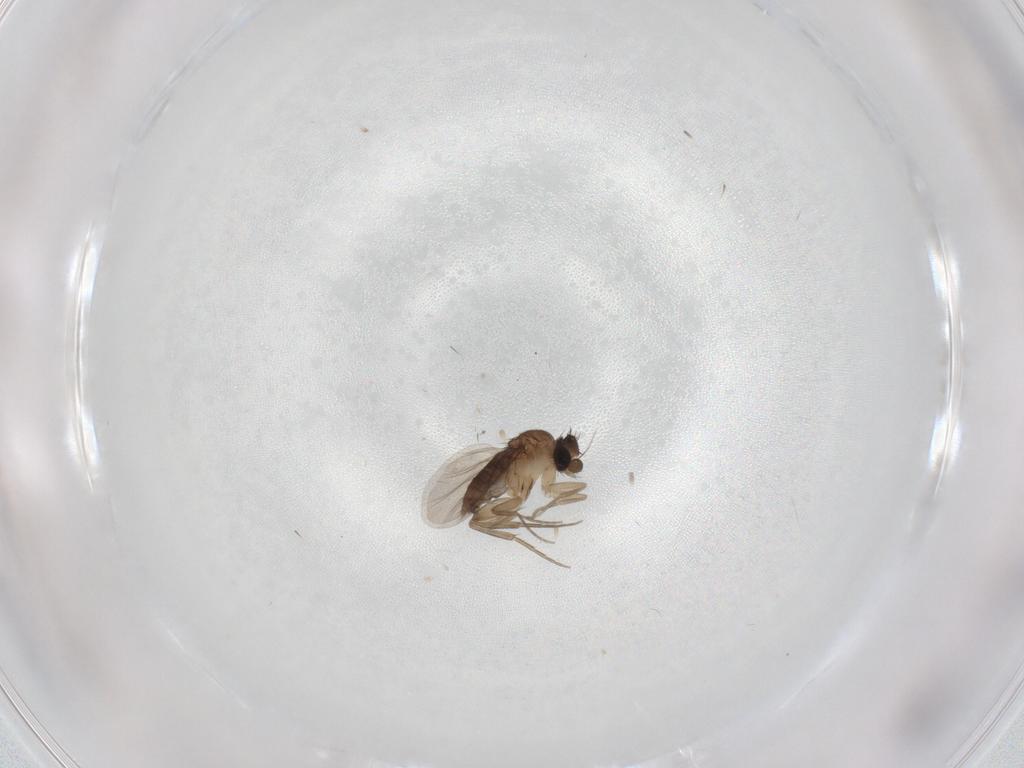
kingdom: Animalia
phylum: Arthropoda
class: Insecta
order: Diptera
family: Phoridae
